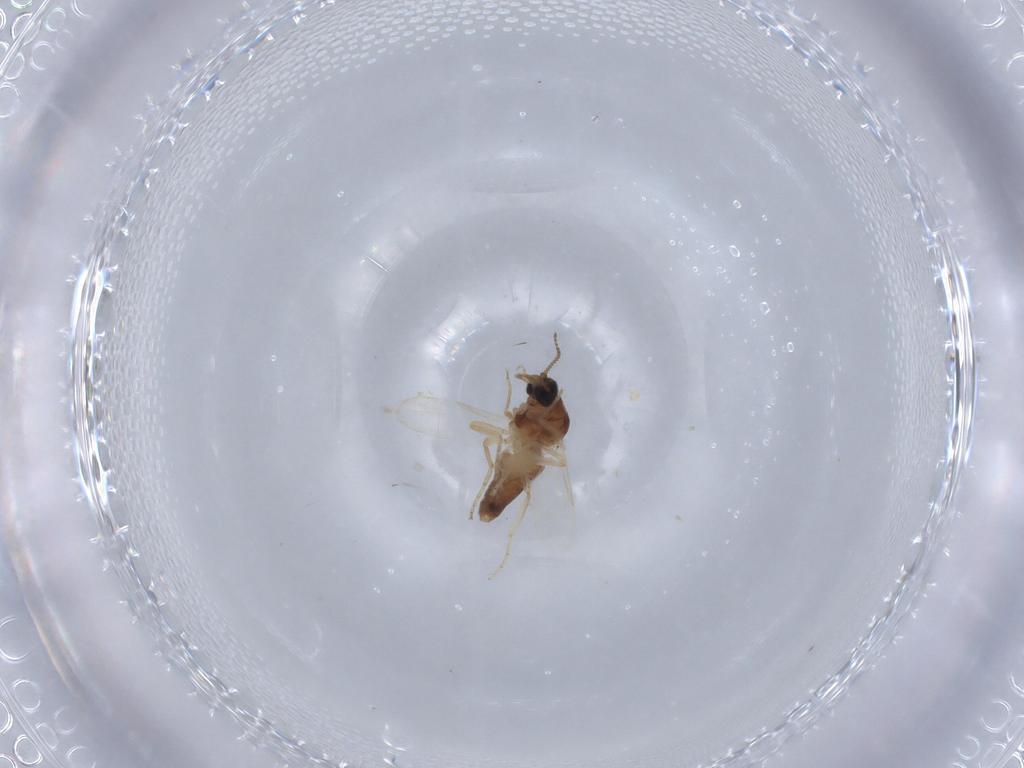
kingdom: Animalia
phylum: Arthropoda
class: Insecta
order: Diptera
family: Ceratopogonidae
